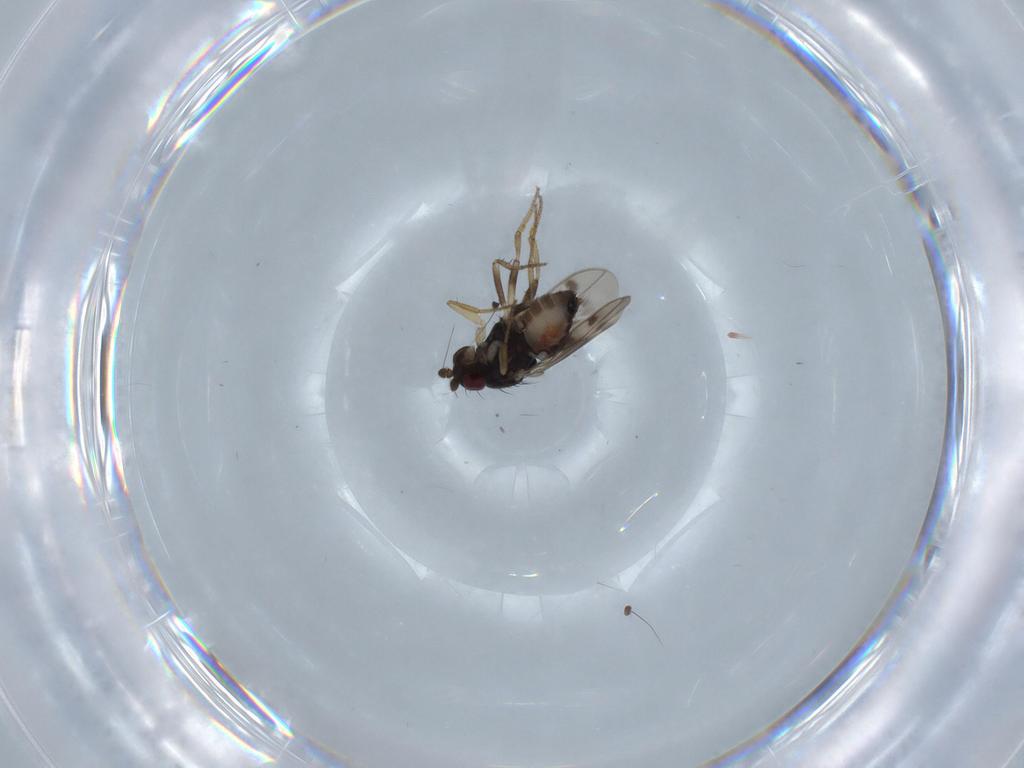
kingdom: Animalia
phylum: Arthropoda
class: Insecta
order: Diptera
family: Sphaeroceridae
